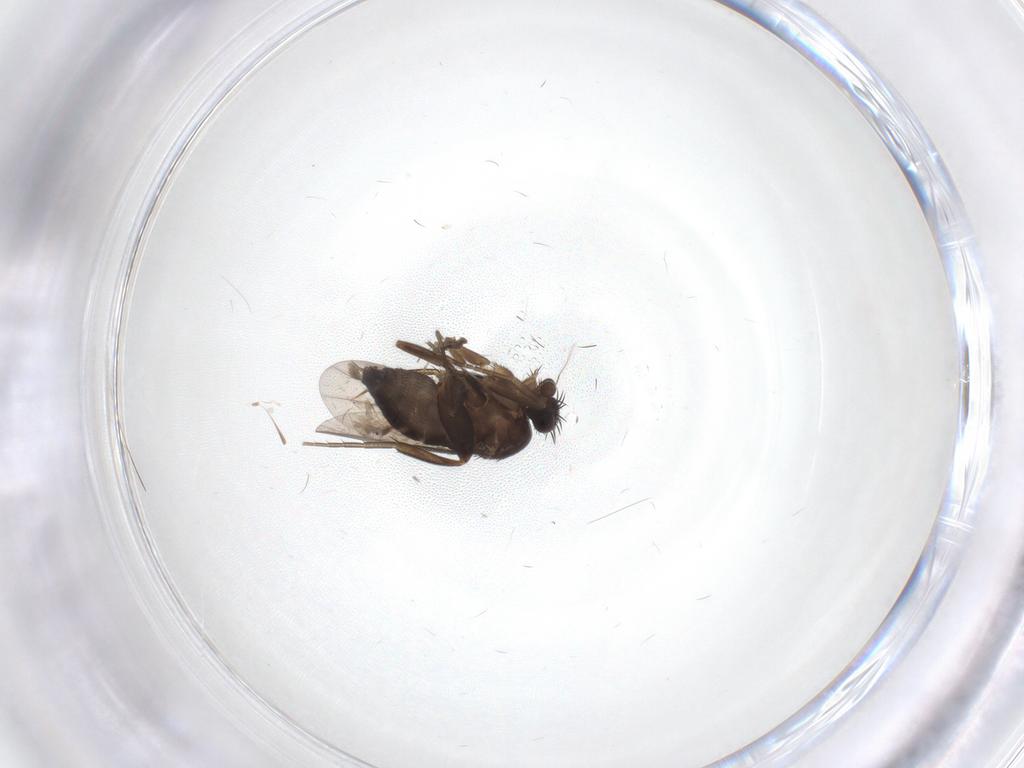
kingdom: Animalia
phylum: Arthropoda
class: Insecta
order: Diptera
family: Phoridae
